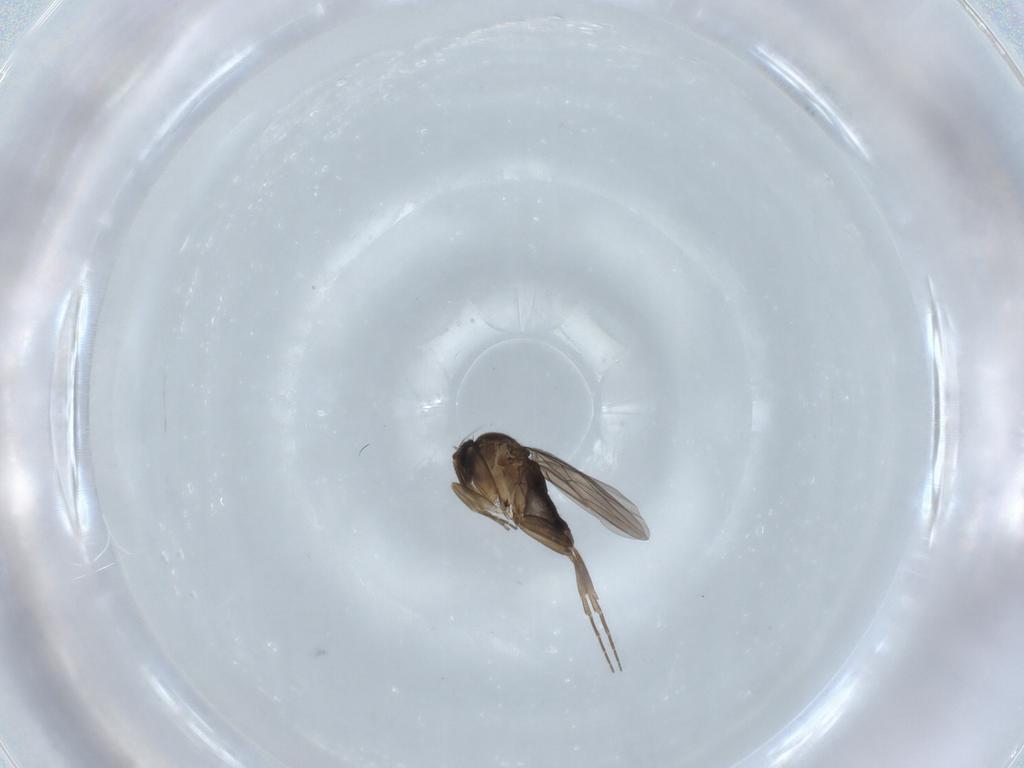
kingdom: Animalia
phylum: Arthropoda
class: Insecta
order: Diptera
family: Phoridae
